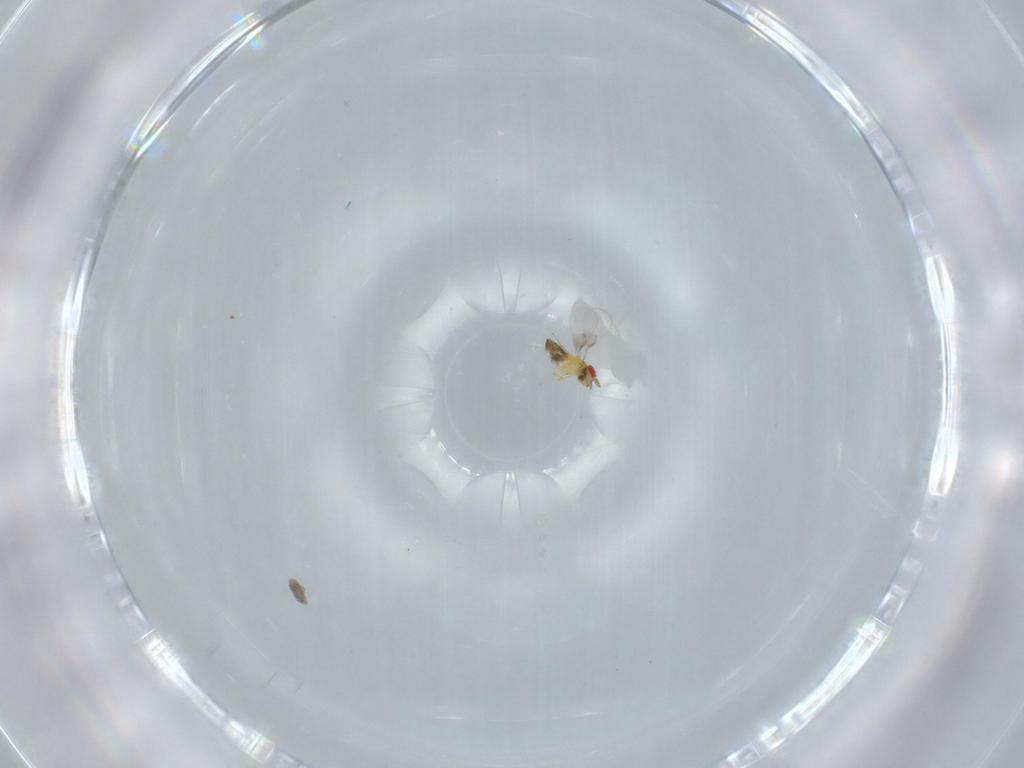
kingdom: Animalia
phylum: Arthropoda
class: Insecta
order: Hymenoptera
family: Trichogrammatidae
